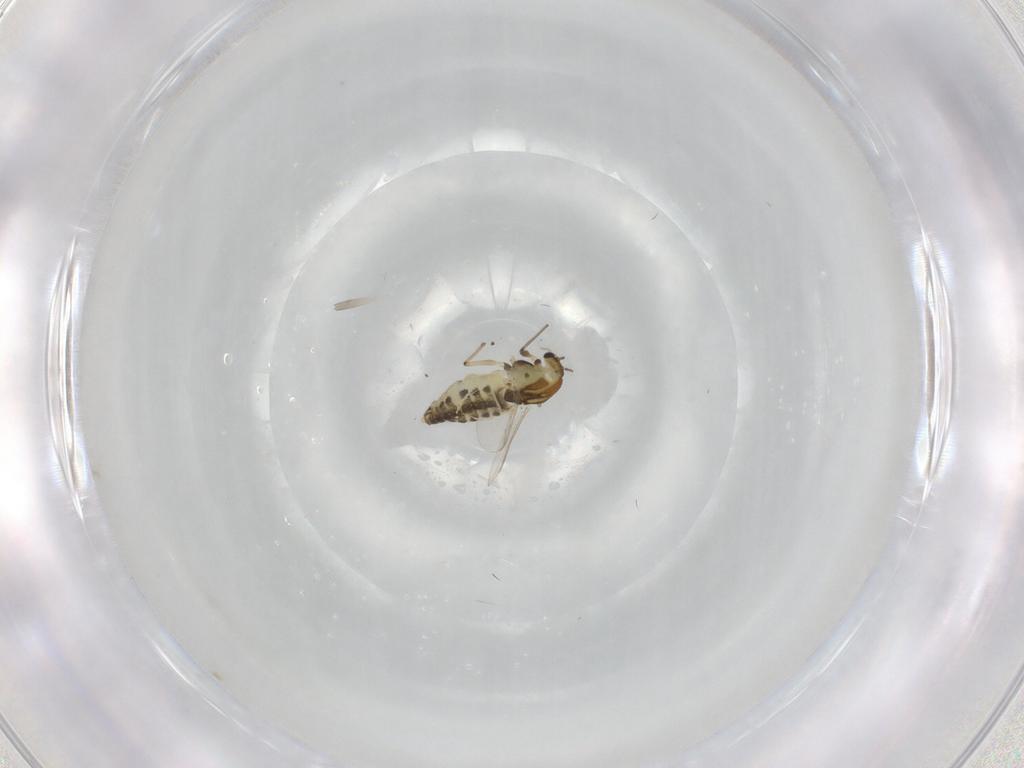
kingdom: Animalia
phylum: Arthropoda
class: Insecta
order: Diptera
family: Chironomidae
